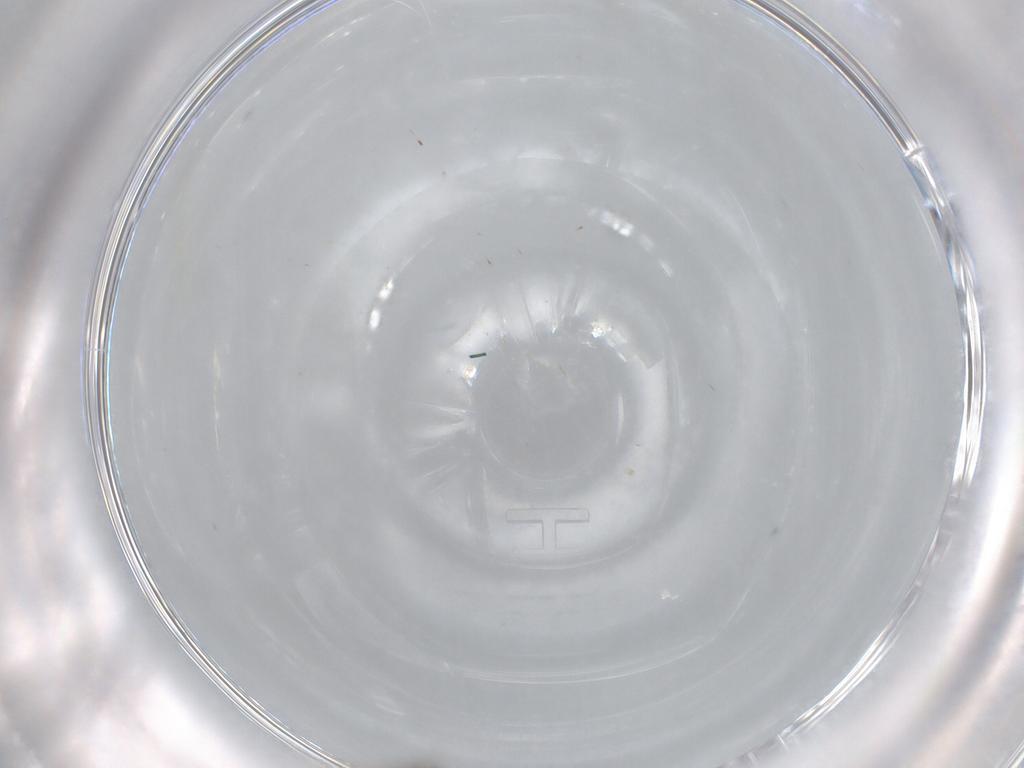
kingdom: Animalia
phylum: Arthropoda
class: Insecta
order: Diptera
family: Ceratopogonidae
